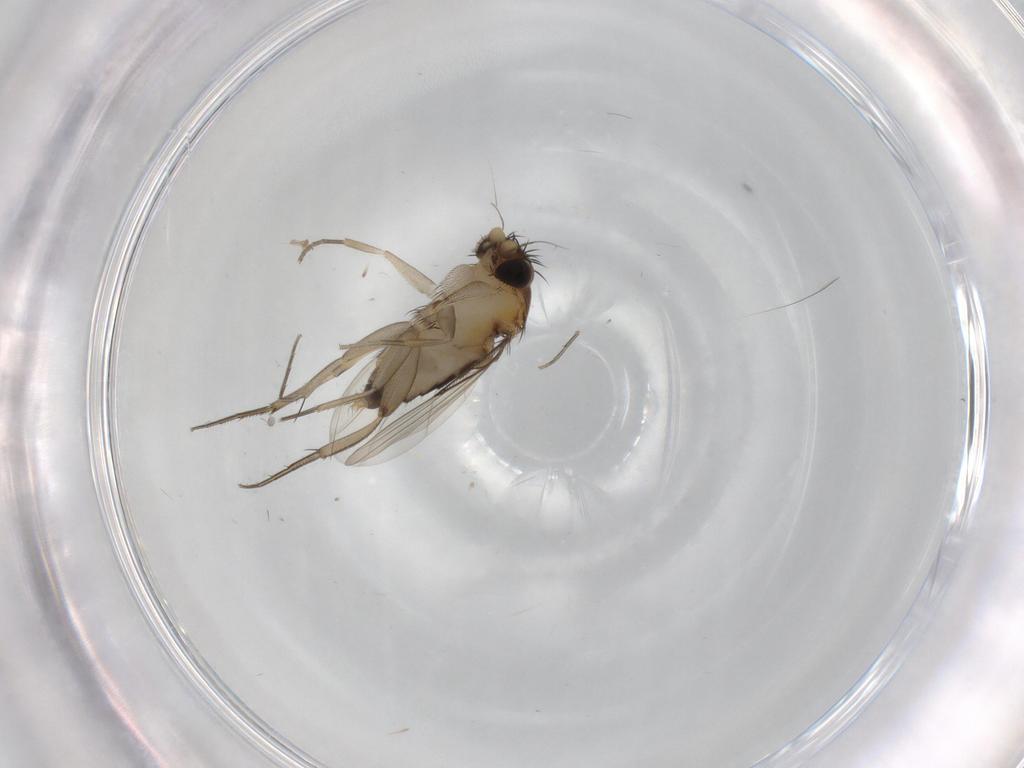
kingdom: Animalia
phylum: Arthropoda
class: Insecta
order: Diptera
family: Phoridae
